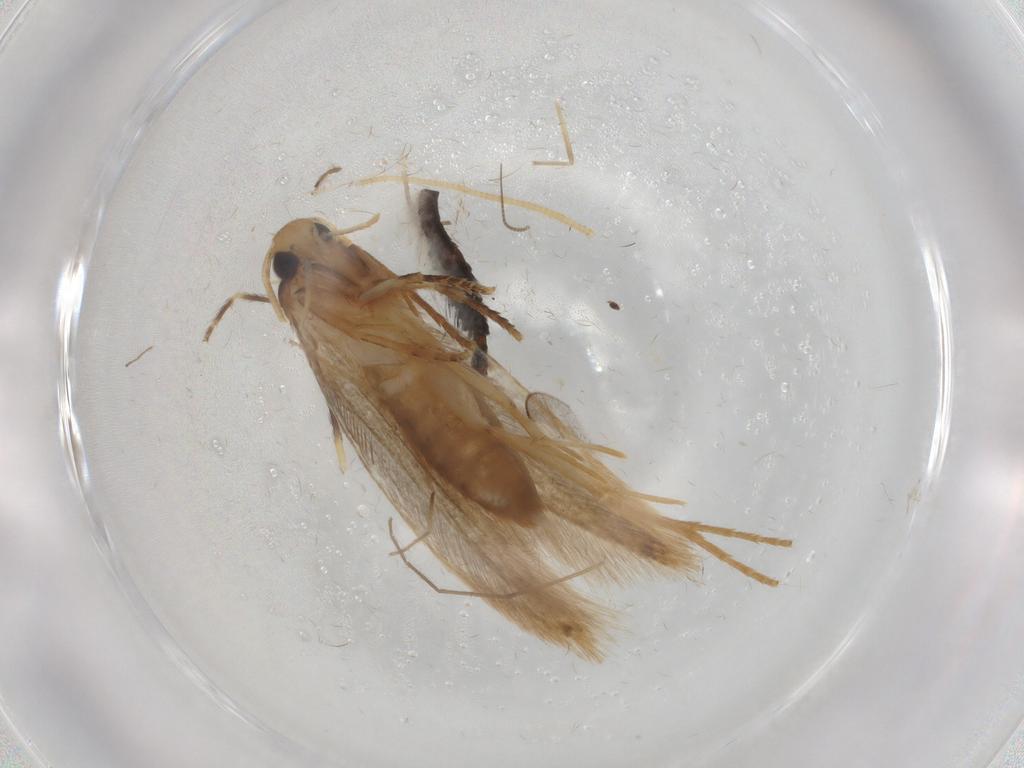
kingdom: Animalia
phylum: Arthropoda
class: Insecta
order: Lepidoptera
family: Tineidae
